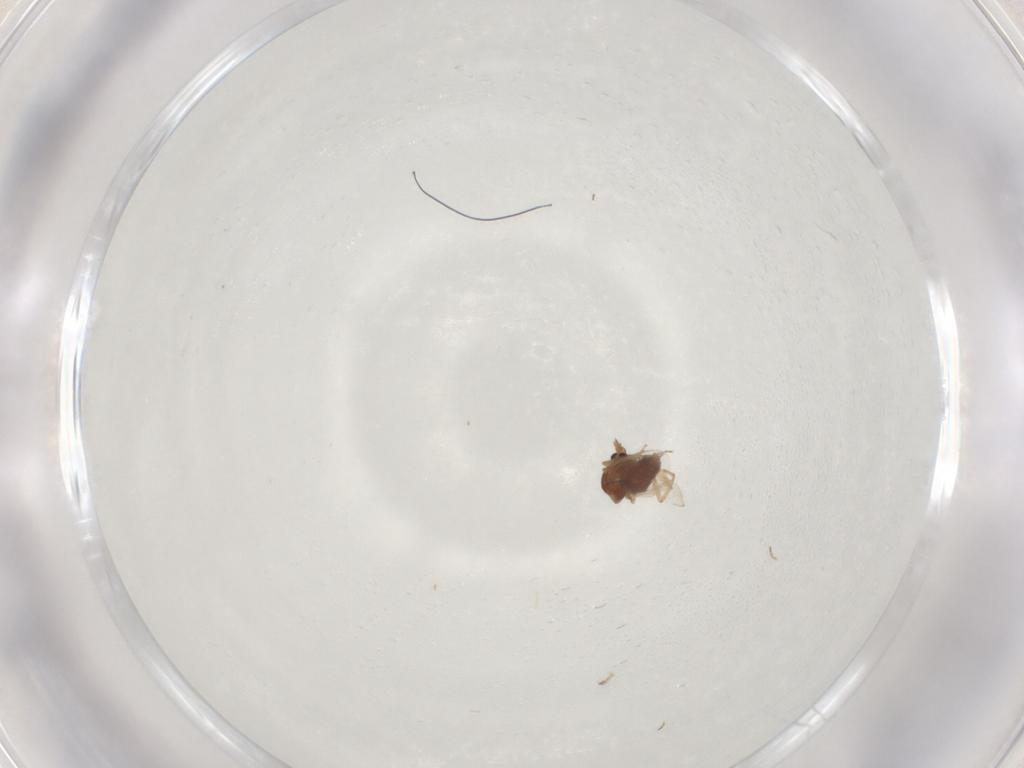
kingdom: Animalia
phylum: Arthropoda
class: Insecta
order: Diptera
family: Ceratopogonidae
